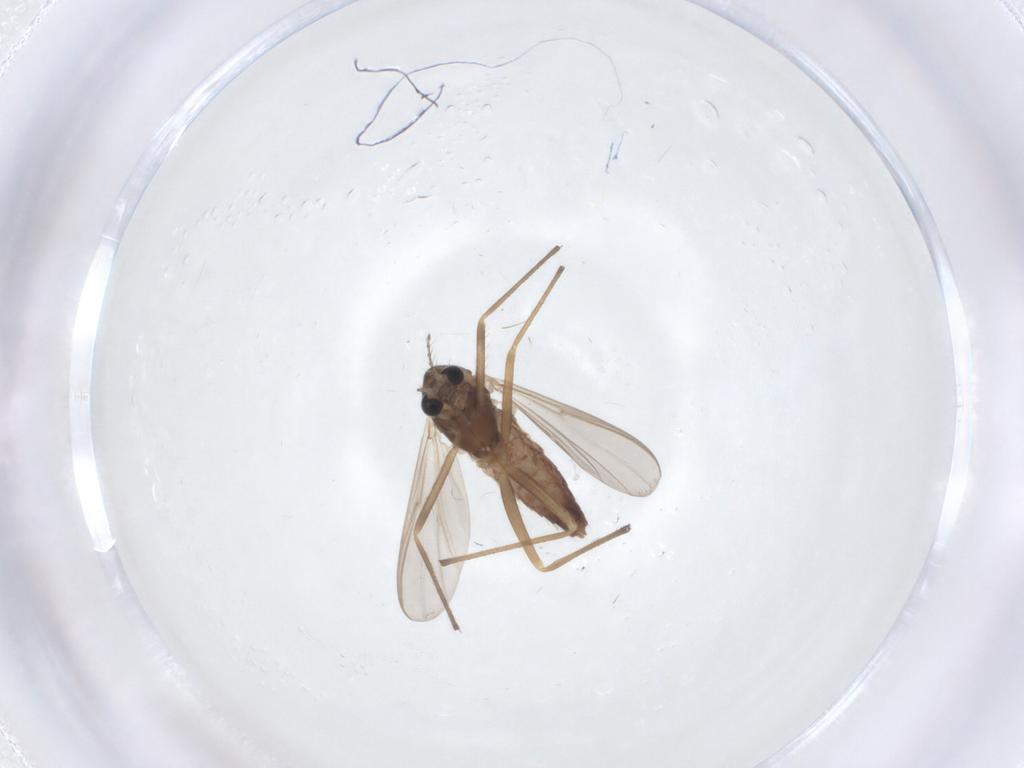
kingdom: Animalia
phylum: Arthropoda
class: Insecta
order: Diptera
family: Chironomidae
